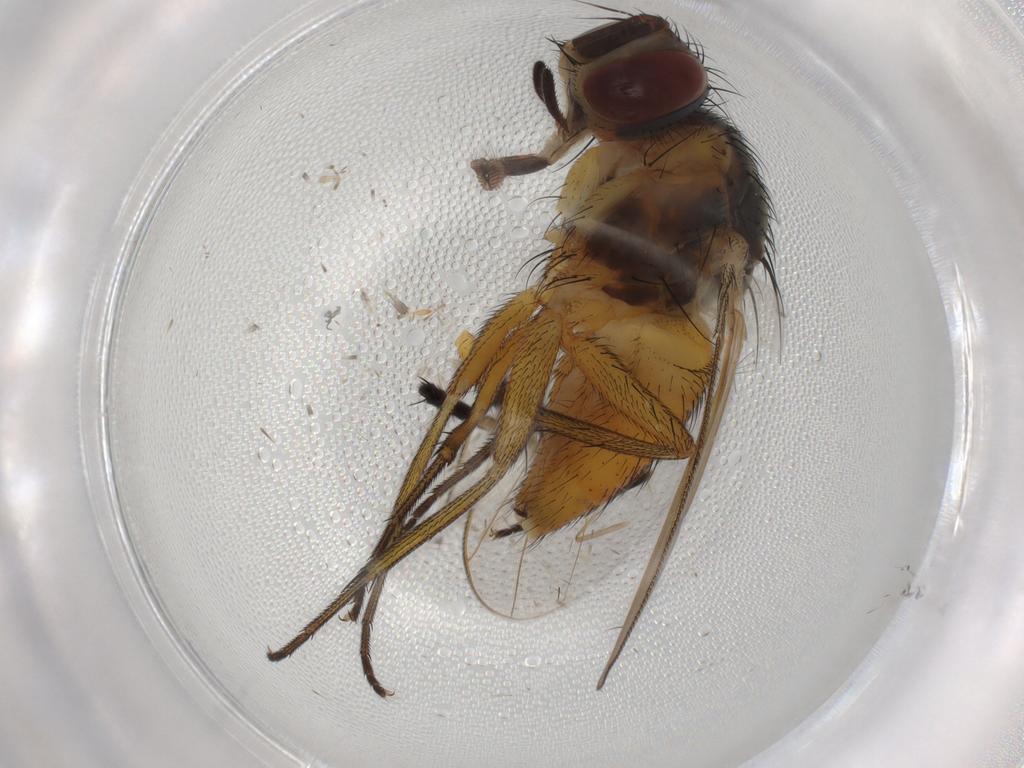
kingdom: Animalia
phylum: Arthropoda
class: Insecta
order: Diptera
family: Muscidae
